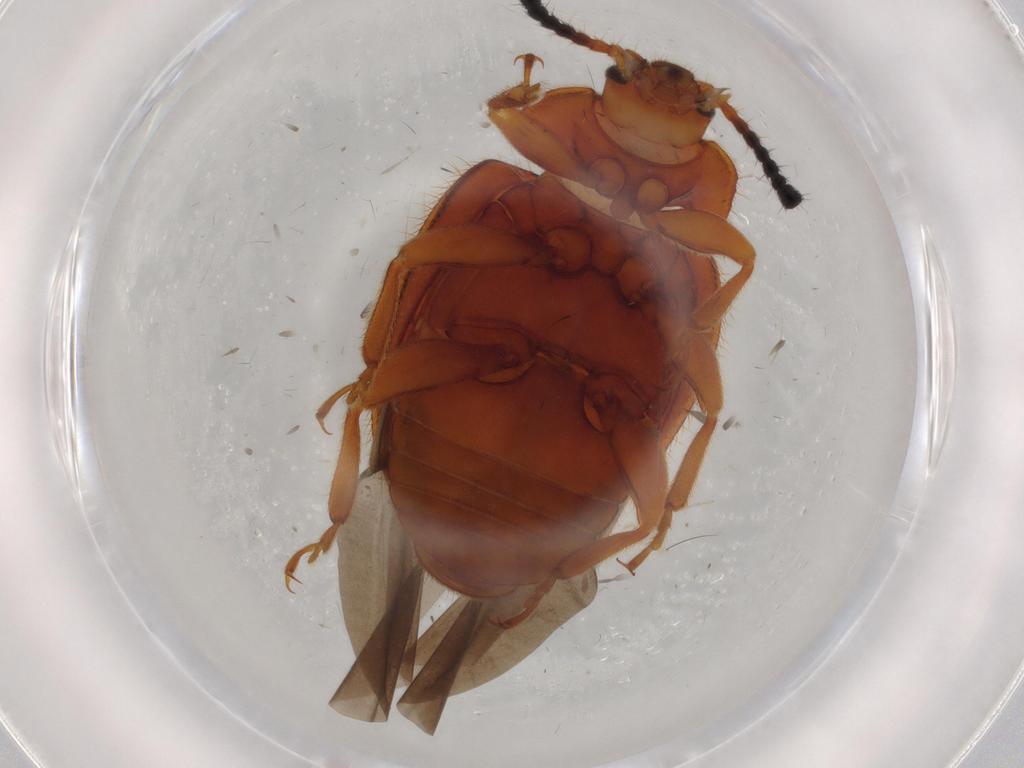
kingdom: Animalia
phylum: Arthropoda
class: Insecta
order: Coleoptera
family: Endomychidae
